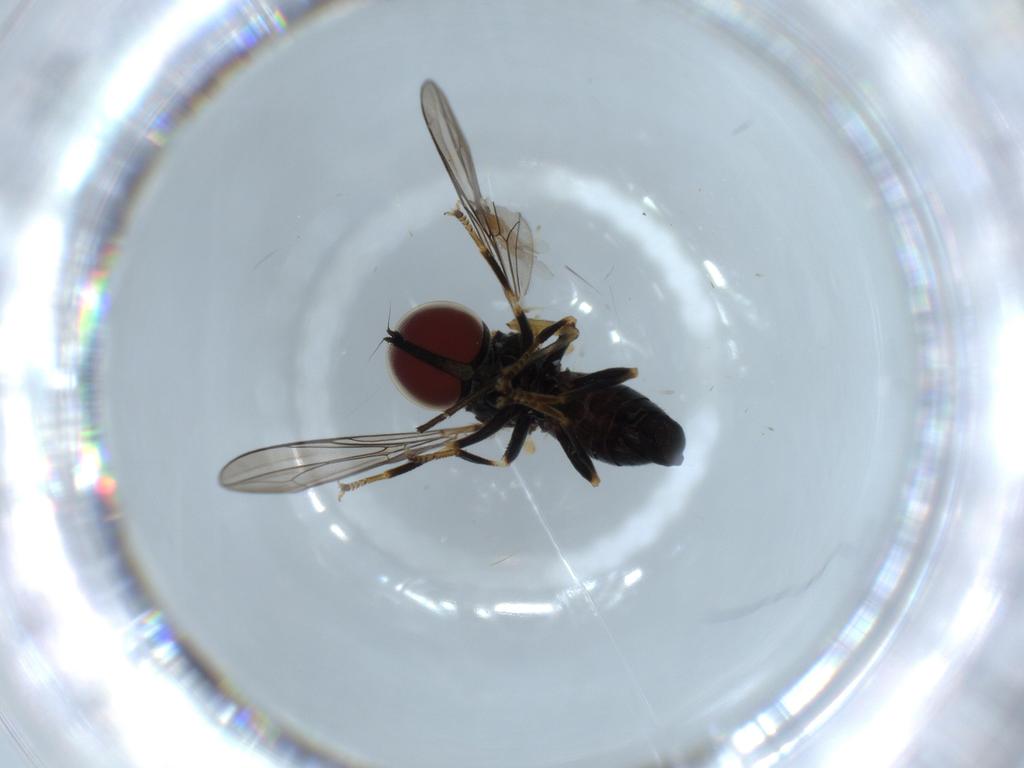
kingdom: Animalia
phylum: Arthropoda
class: Insecta
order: Diptera
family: Pipunculidae
